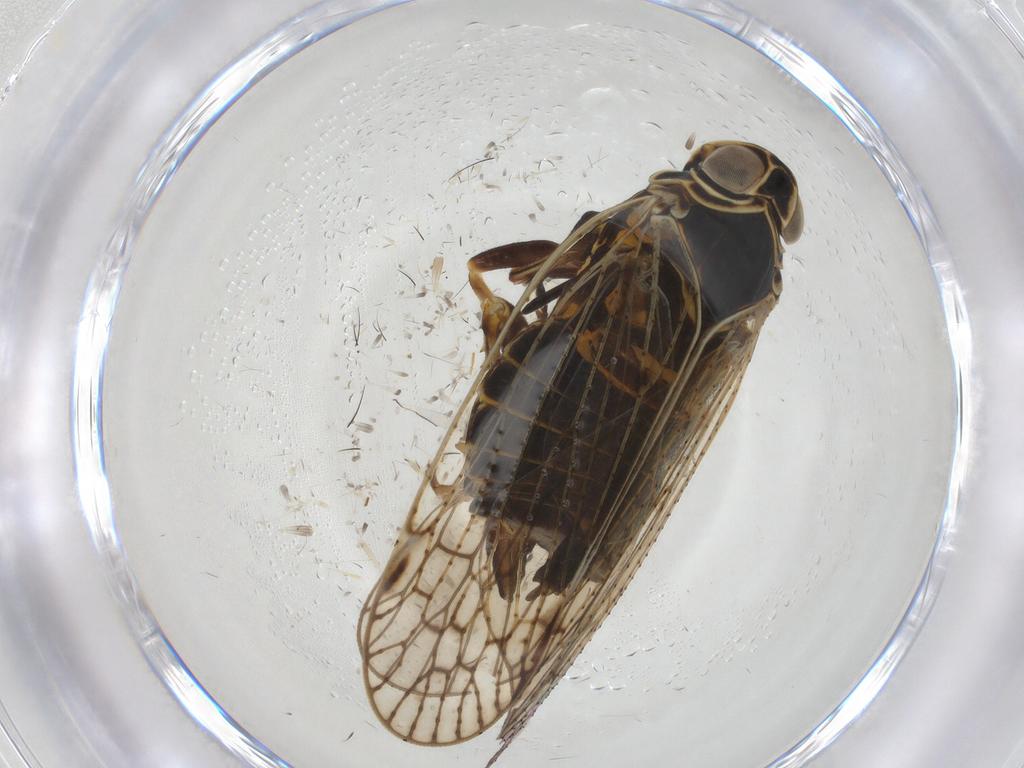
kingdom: Animalia
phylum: Arthropoda
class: Insecta
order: Hemiptera
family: Cixiidae
